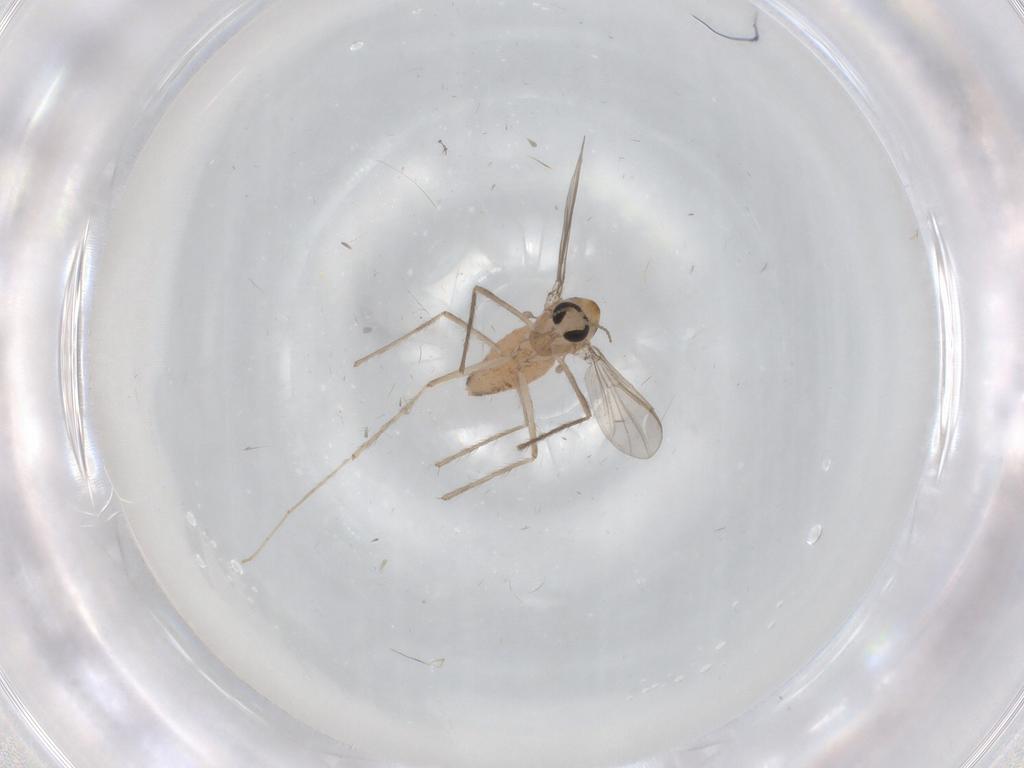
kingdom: Animalia
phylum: Arthropoda
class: Insecta
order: Diptera
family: Chironomidae
